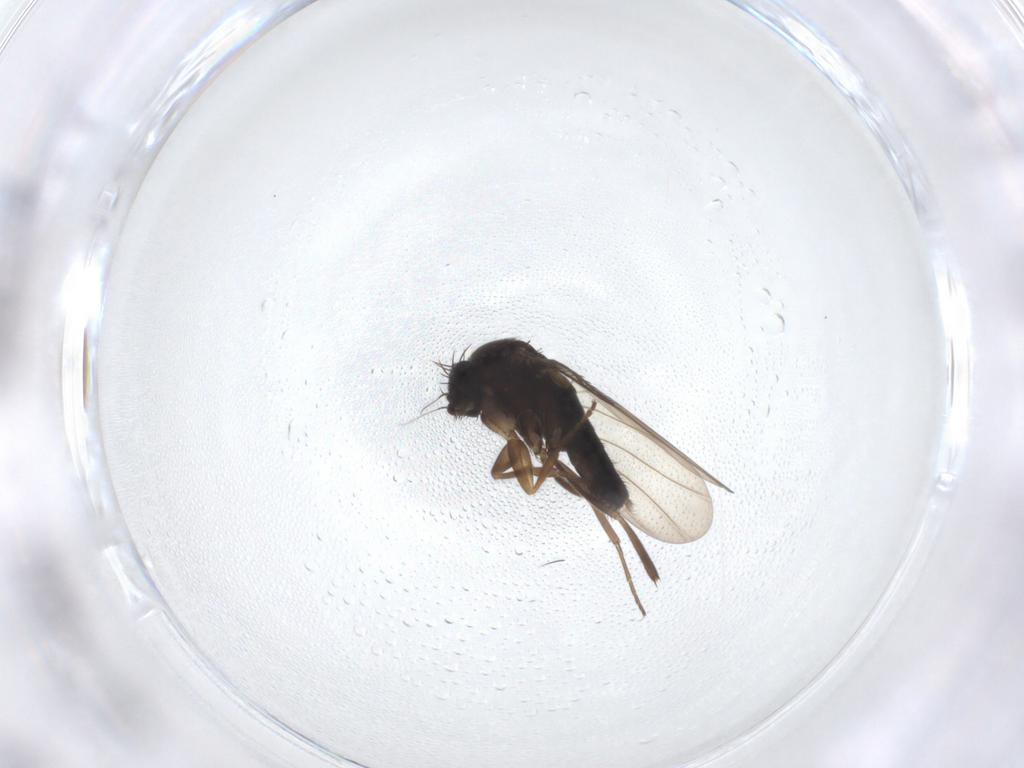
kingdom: Animalia
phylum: Arthropoda
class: Insecta
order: Diptera
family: Phoridae
